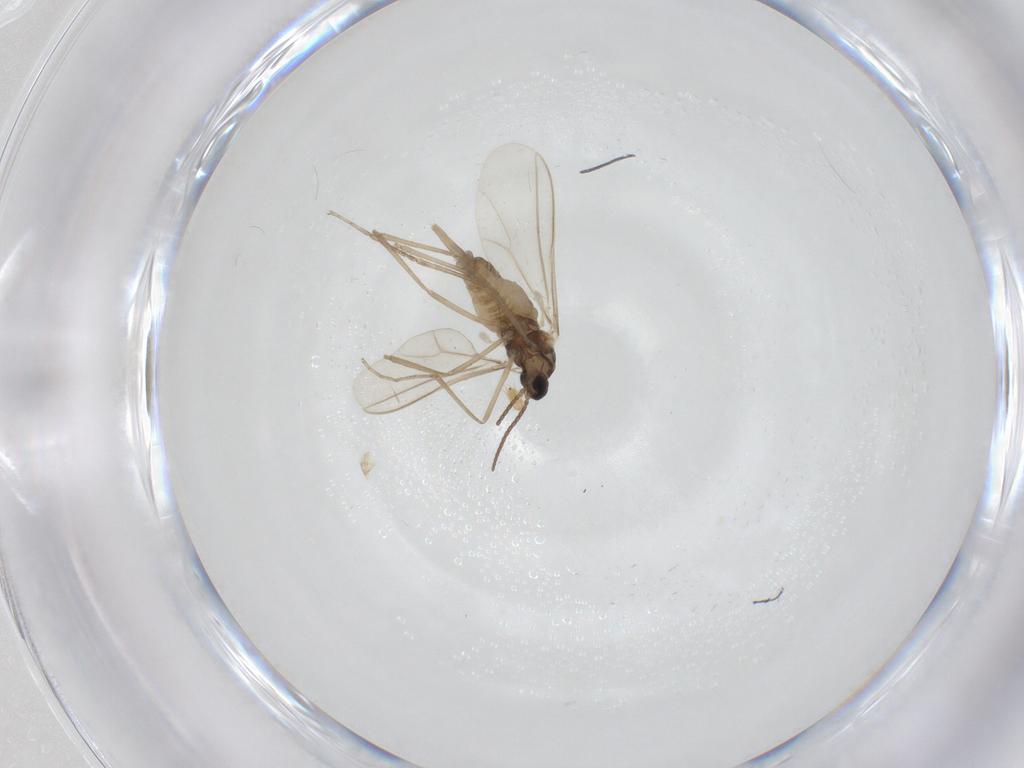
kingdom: Animalia
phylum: Arthropoda
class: Insecta
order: Diptera
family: Cecidomyiidae
